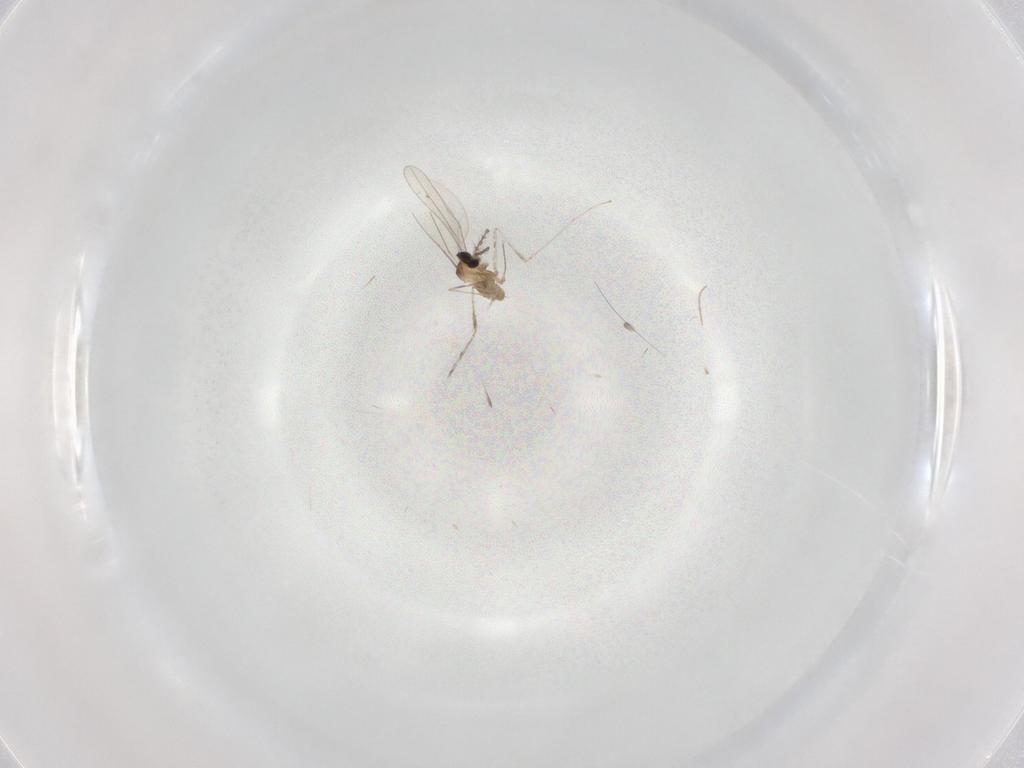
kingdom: Animalia
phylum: Arthropoda
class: Insecta
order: Diptera
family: Cecidomyiidae
